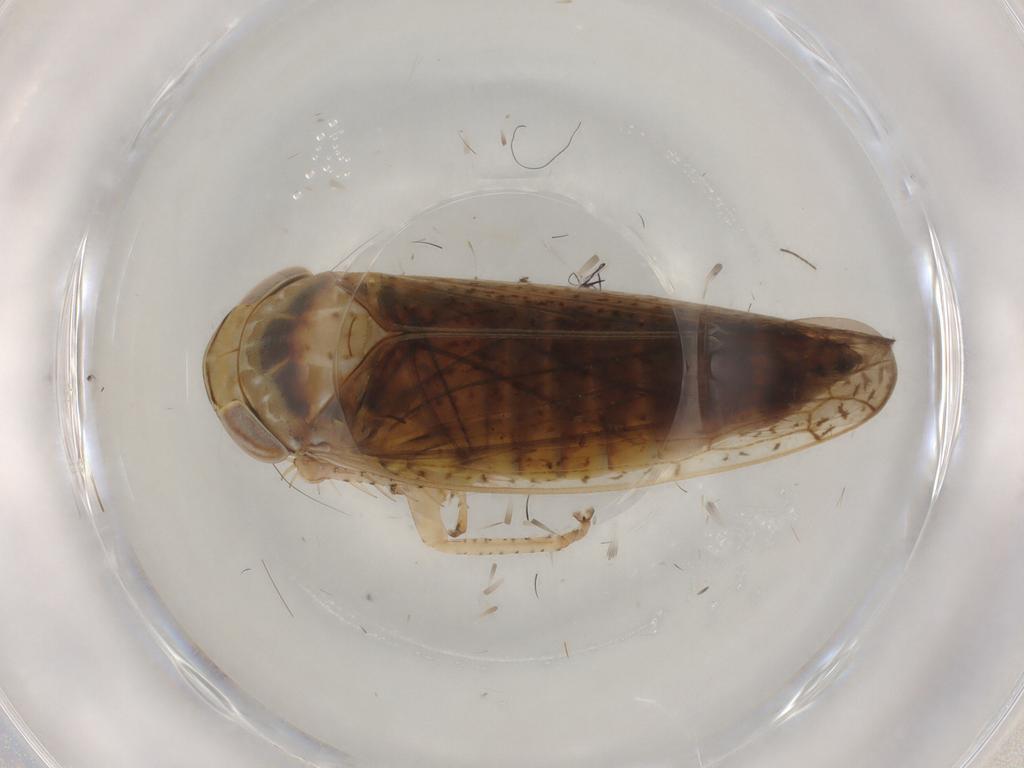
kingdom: Animalia
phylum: Arthropoda
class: Insecta
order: Hemiptera
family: Cicadellidae
